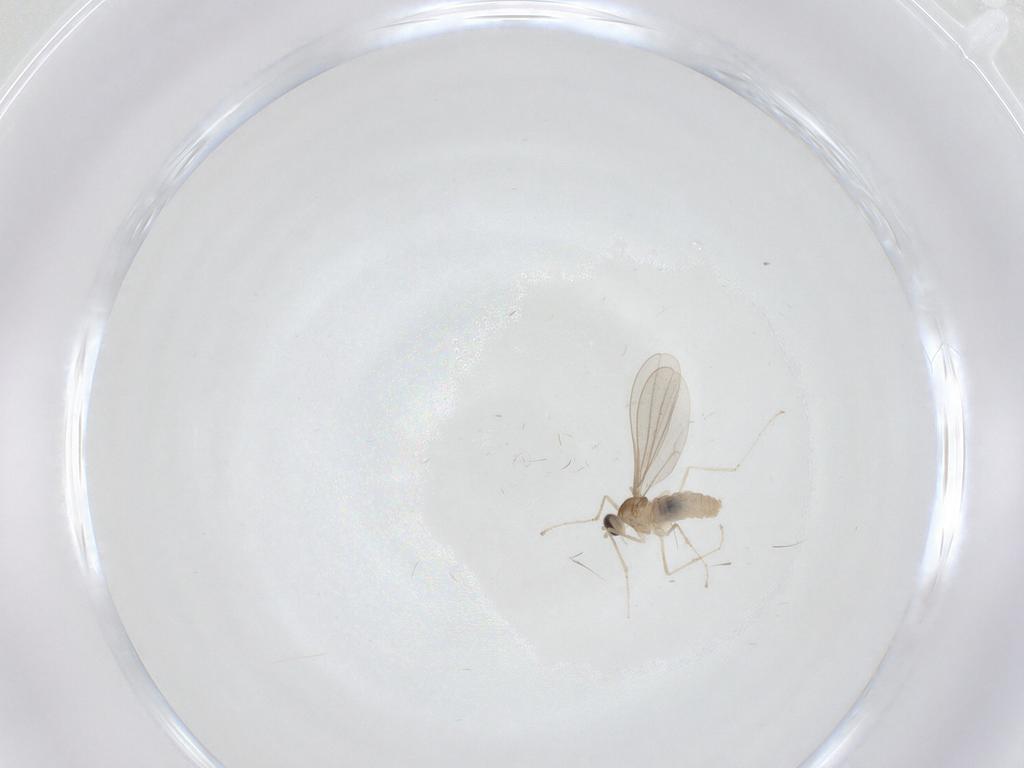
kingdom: Animalia
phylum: Arthropoda
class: Insecta
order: Diptera
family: Cecidomyiidae
